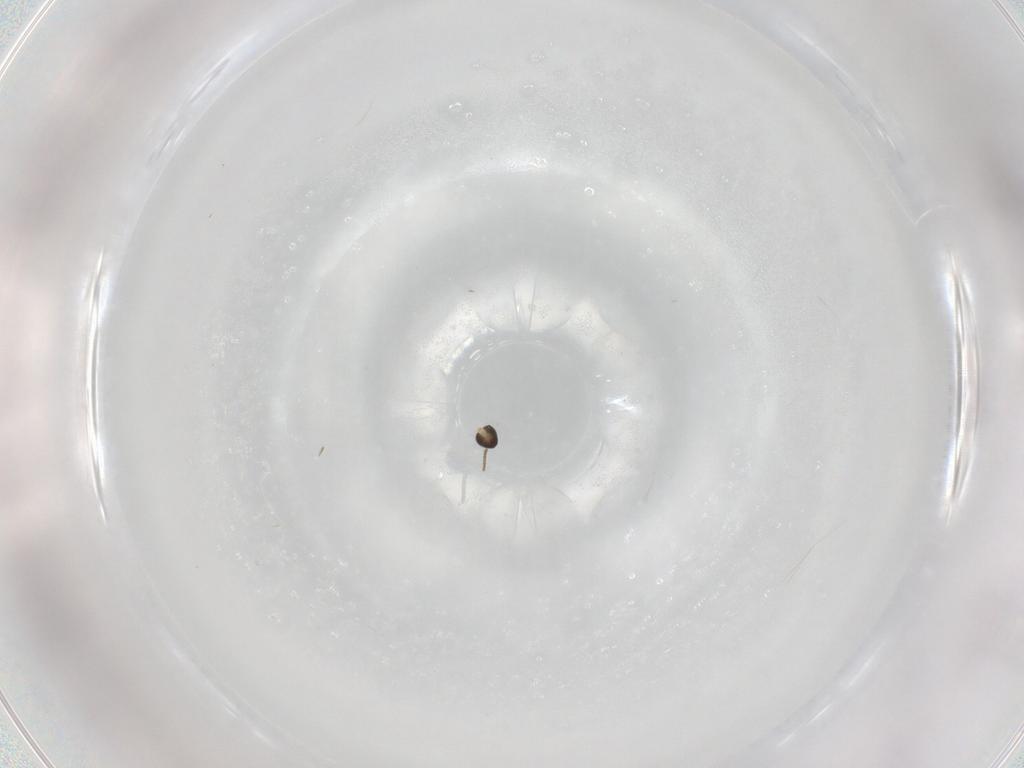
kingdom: Animalia
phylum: Arthropoda
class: Insecta
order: Diptera
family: Cecidomyiidae
